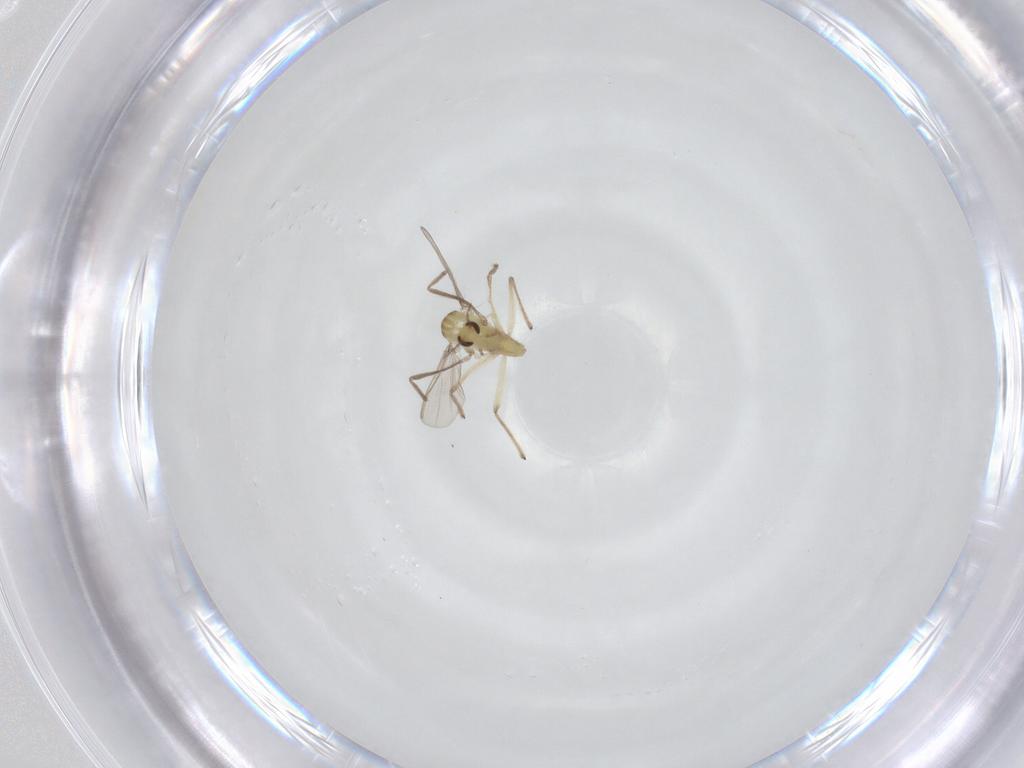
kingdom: Animalia
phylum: Arthropoda
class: Insecta
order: Diptera
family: Chironomidae
